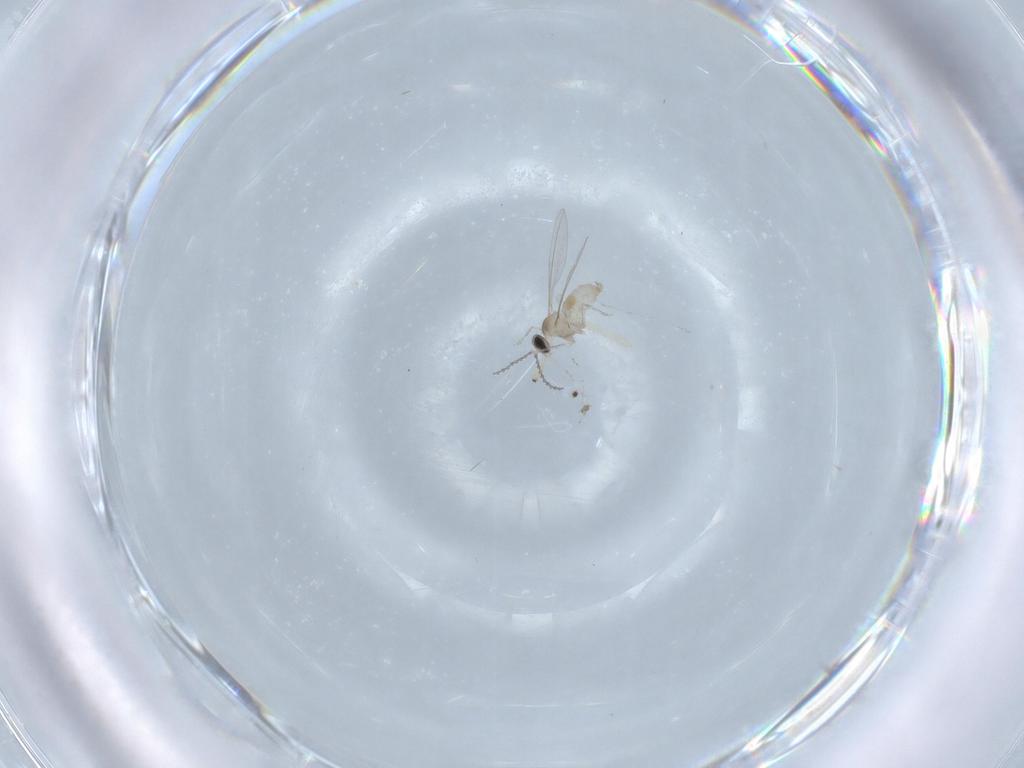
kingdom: Animalia
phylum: Arthropoda
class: Insecta
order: Diptera
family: Chironomidae
